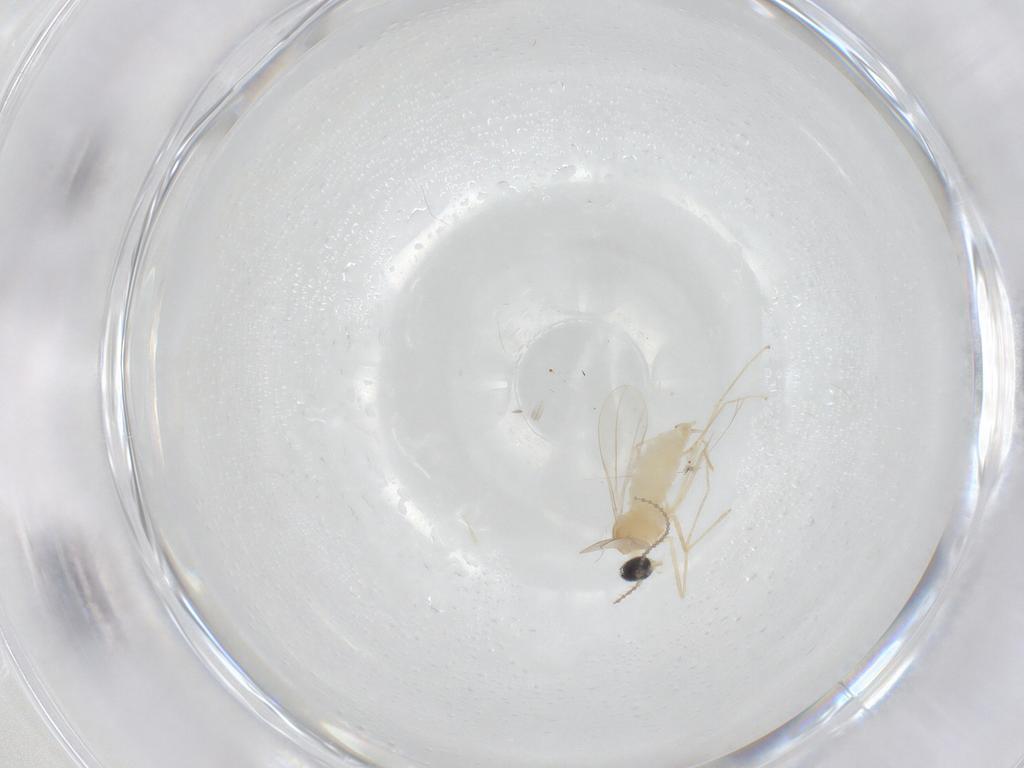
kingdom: Animalia
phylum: Arthropoda
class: Insecta
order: Diptera
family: Cecidomyiidae
